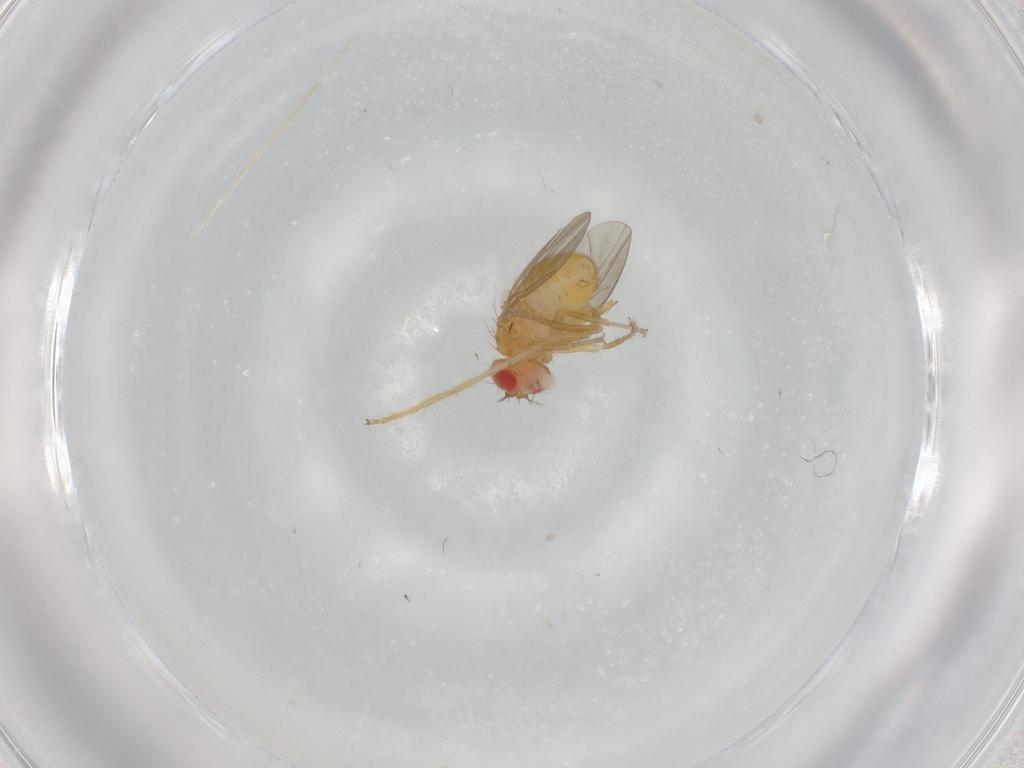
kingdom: Animalia
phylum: Arthropoda
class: Insecta
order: Diptera
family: Drosophilidae
